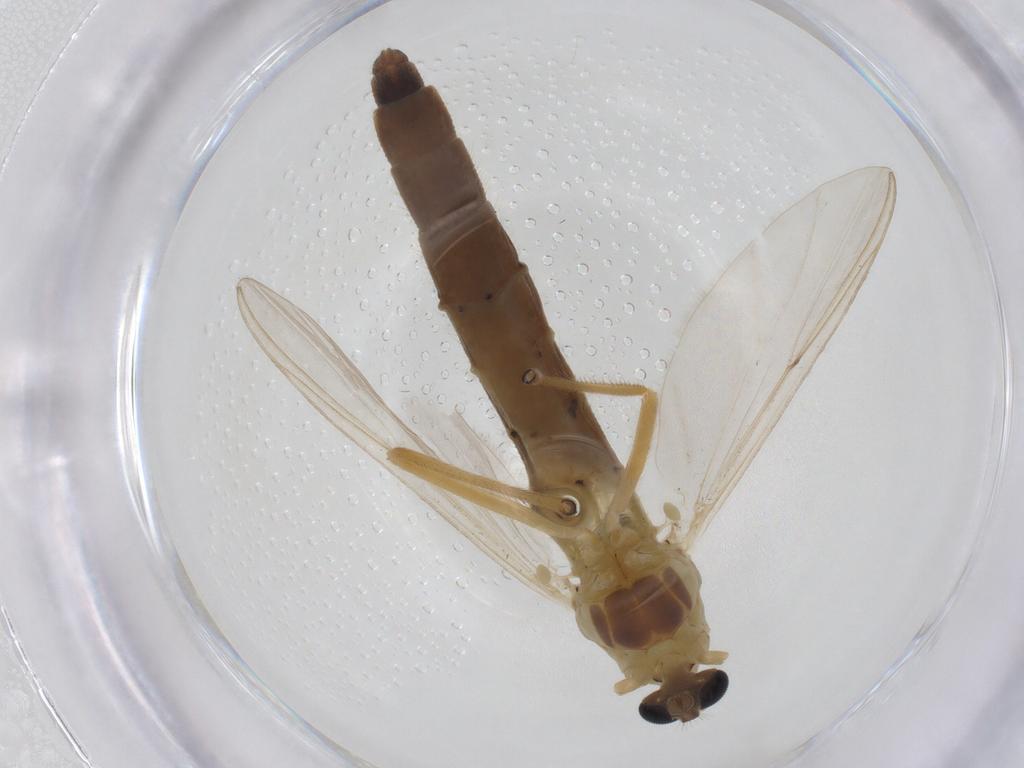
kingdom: Animalia
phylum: Arthropoda
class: Insecta
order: Diptera
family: Chironomidae
